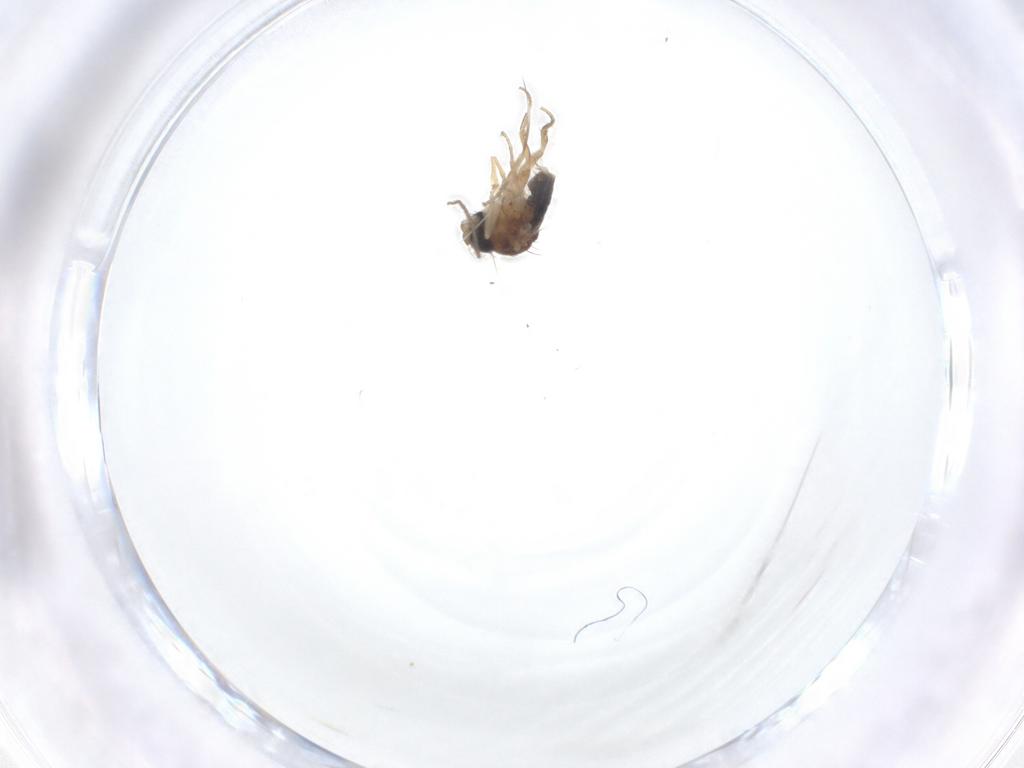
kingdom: Animalia
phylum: Arthropoda
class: Insecta
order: Diptera
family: Chironomidae
